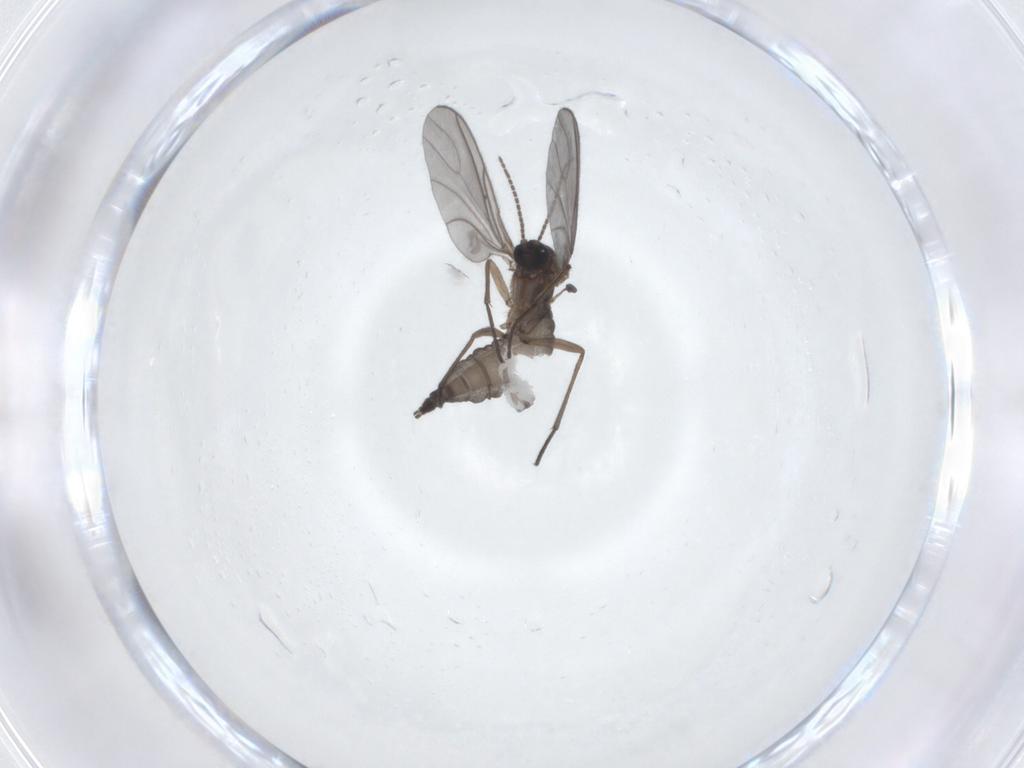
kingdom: Animalia
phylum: Arthropoda
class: Insecta
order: Diptera
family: Sciaridae
